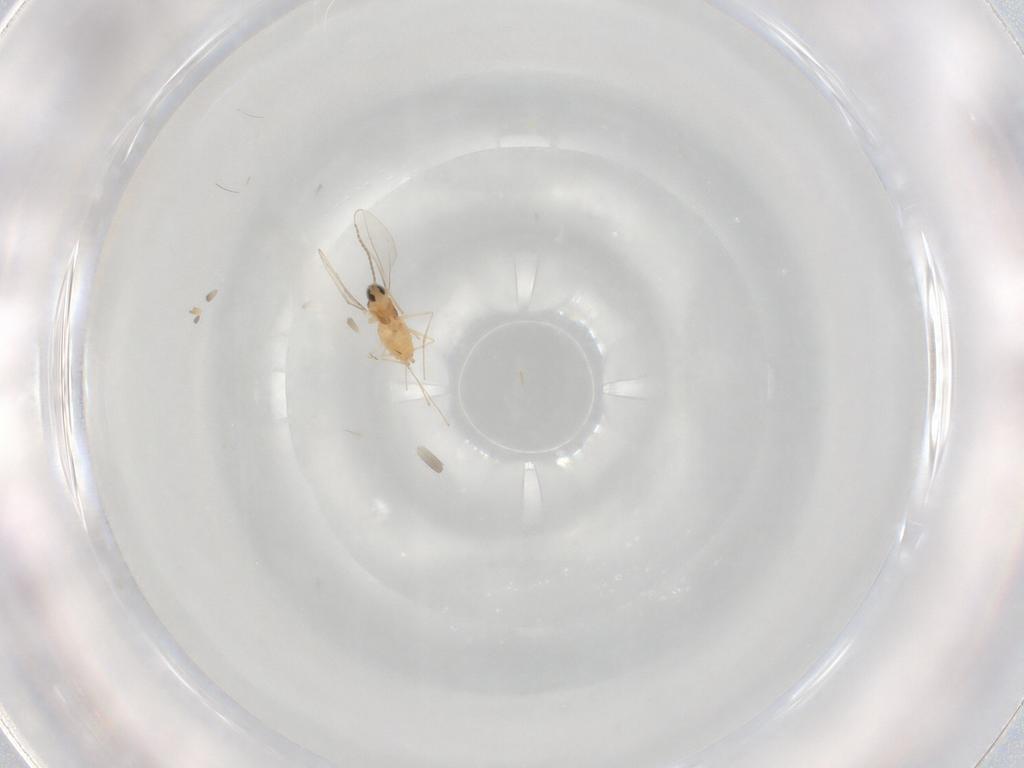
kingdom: Animalia
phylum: Arthropoda
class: Insecta
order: Diptera
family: Cecidomyiidae
